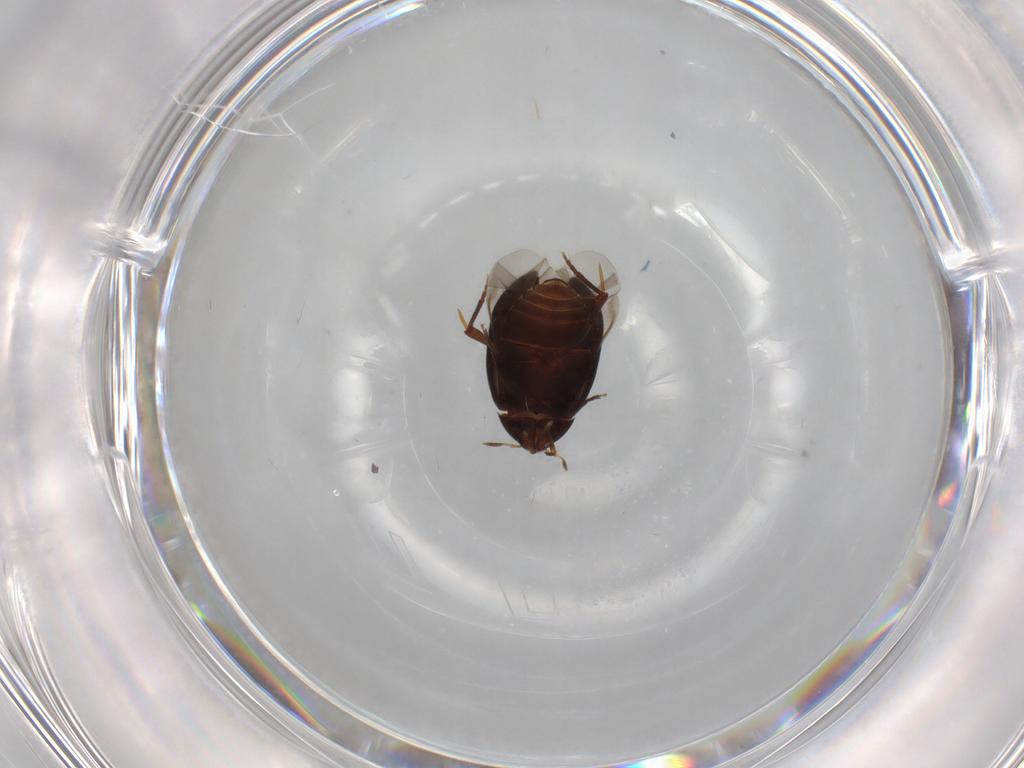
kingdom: Animalia
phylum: Arthropoda
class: Insecta
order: Coleoptera
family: Melandryidae
